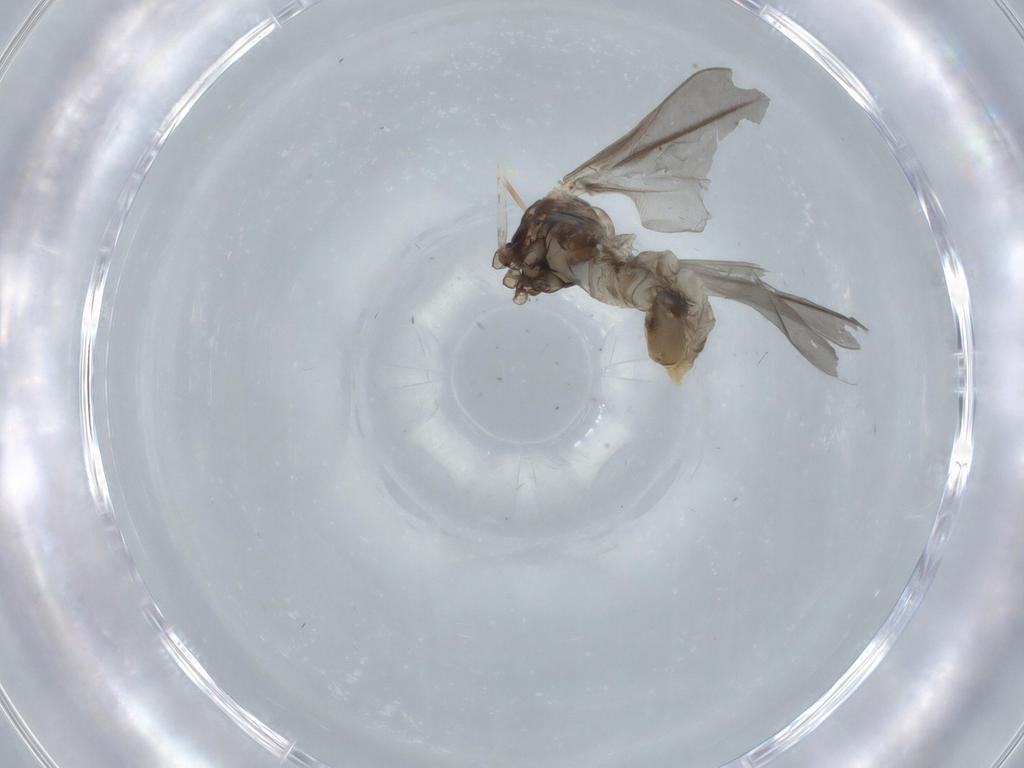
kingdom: Animalia
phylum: Arthropoda
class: Insecta
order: Diptera
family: Cecidomyiidae
